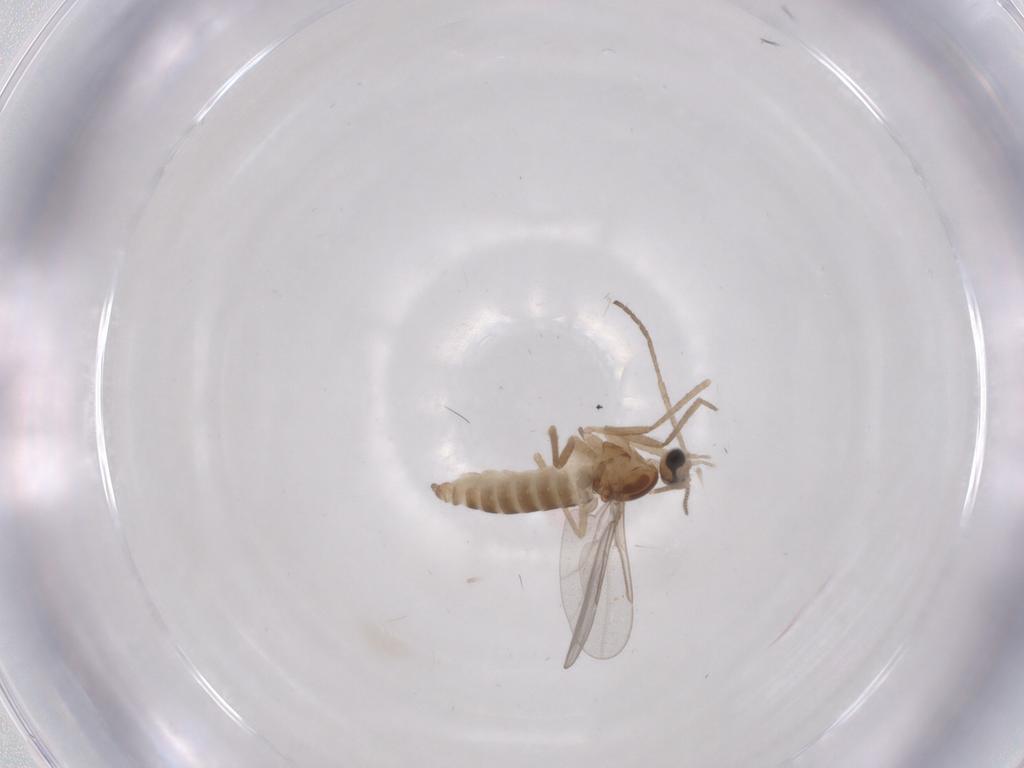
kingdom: Animalia
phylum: Arthropoda
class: Insecta
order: Diptera
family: Cecidomyiidae
